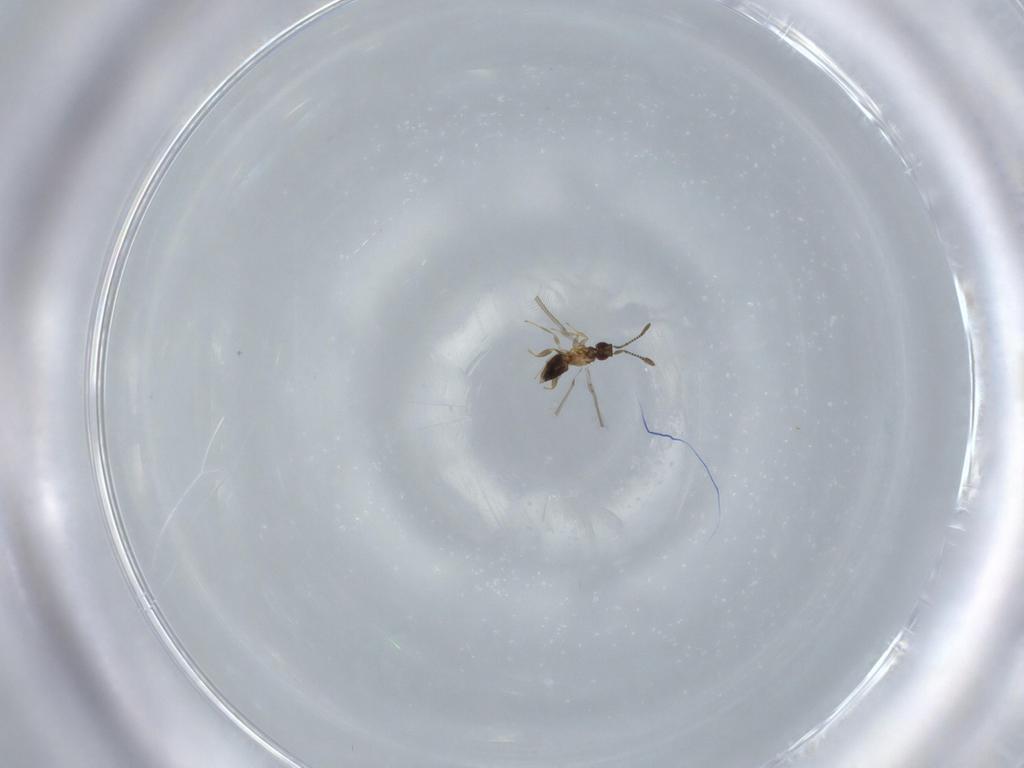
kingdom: Animalia
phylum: Arthropoda
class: Insecta
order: Hymenoptera
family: Mymaridae
